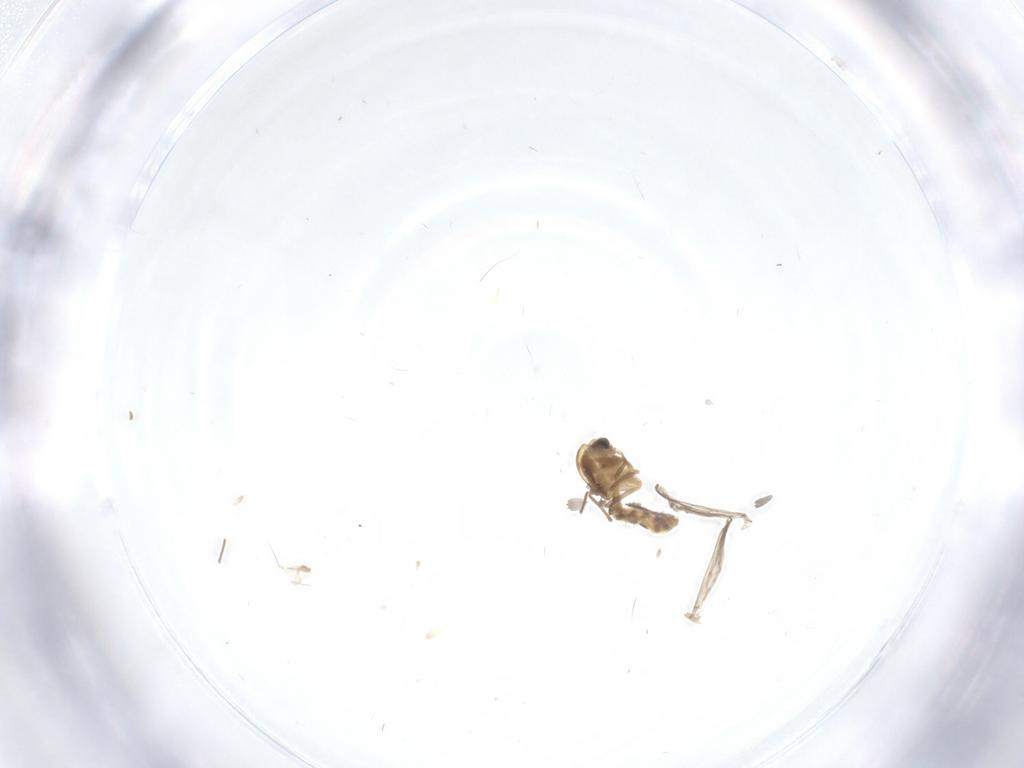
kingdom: Animalia
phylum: Arthropoda
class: Insecta
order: Diptera
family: Chironomidae
